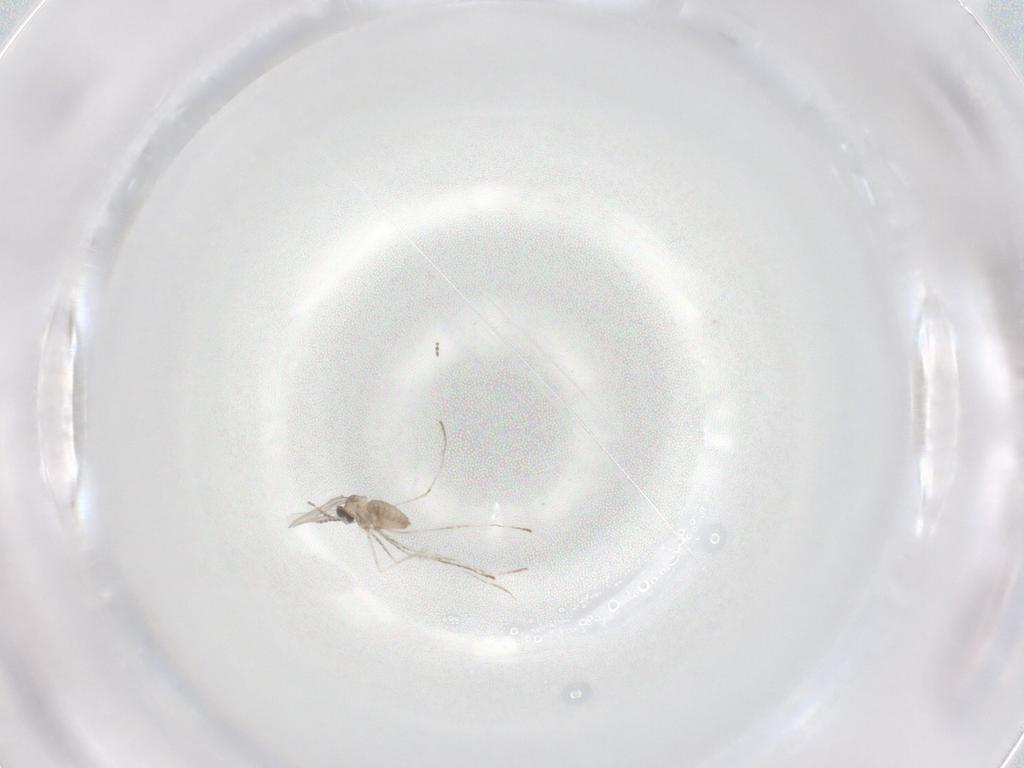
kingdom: Animalia
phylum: Arthropoda
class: Insecta
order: Diptera
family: Cecidomyiidae
